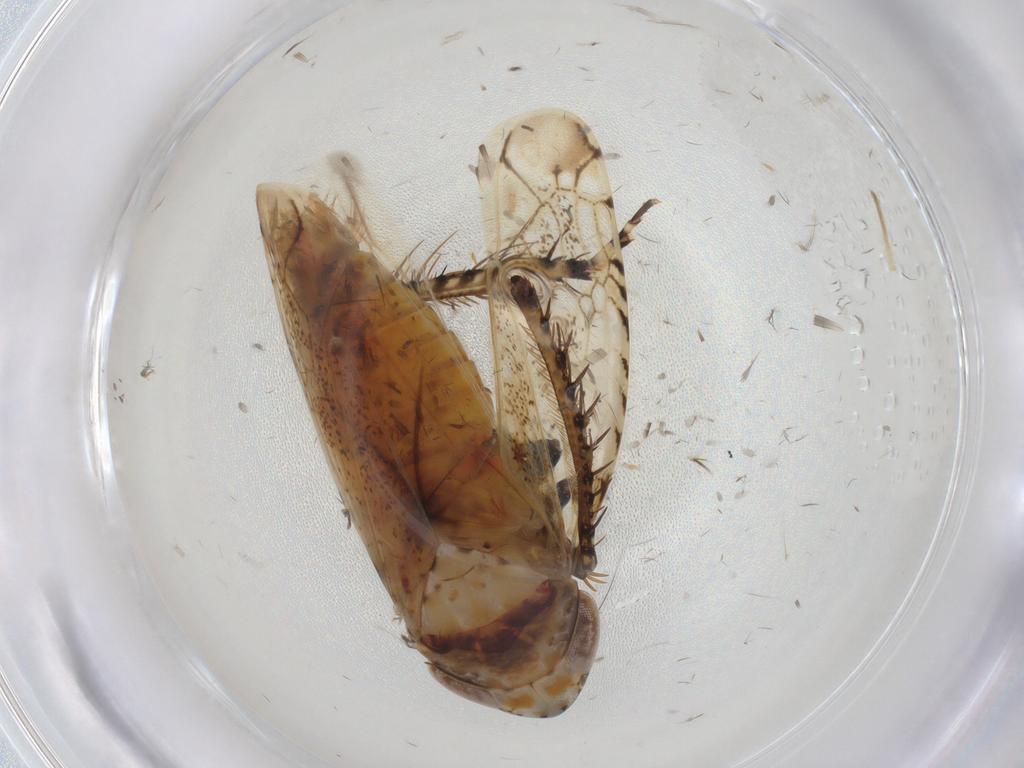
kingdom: Animalia
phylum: Arthropoda
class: Insecta
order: Hemiptera
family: Cicadellidae
